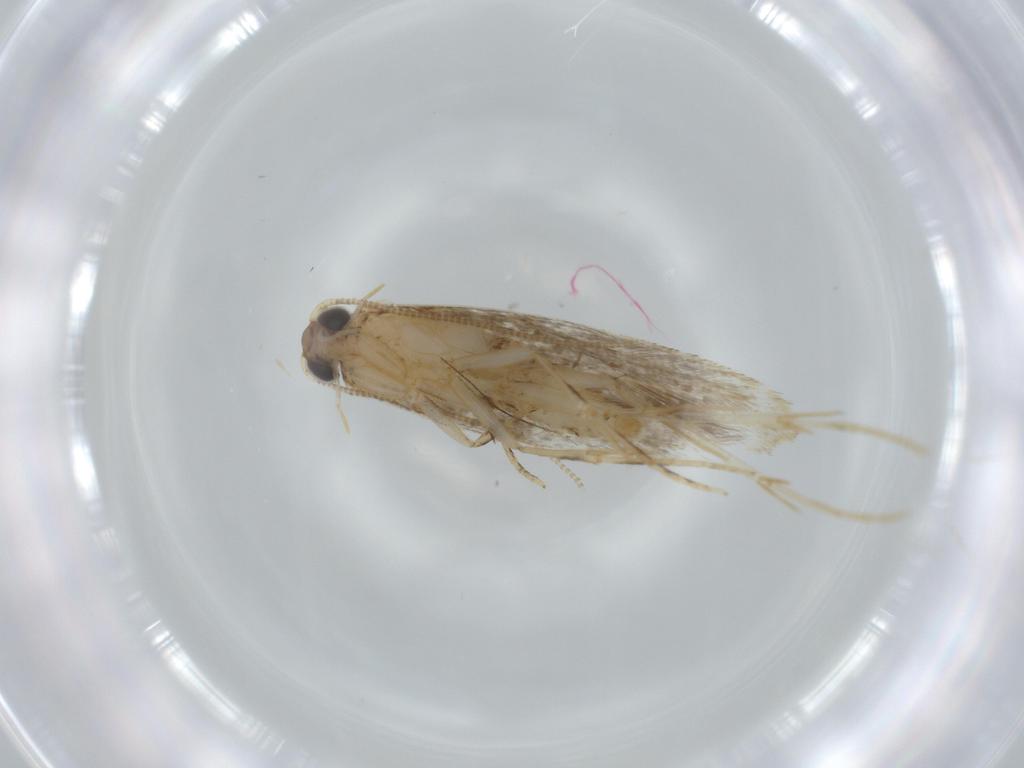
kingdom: Animalia
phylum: Arthropoda
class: Insecta
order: Lepidoptera
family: Tineidae
